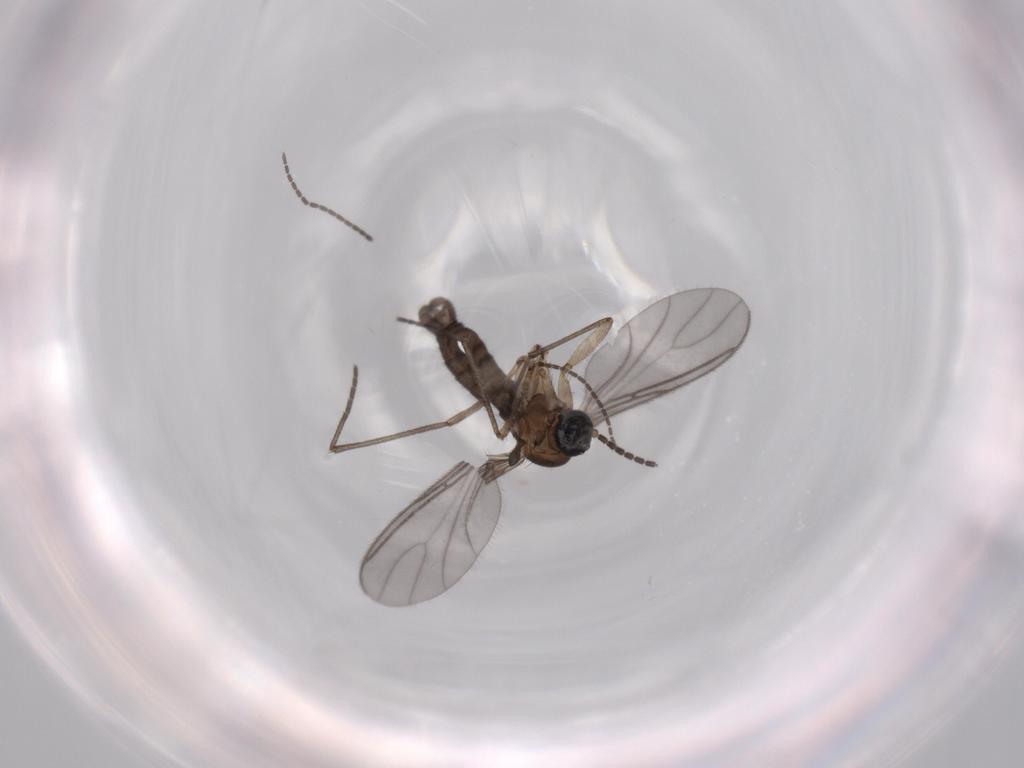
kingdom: Animalia
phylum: Arthropoda
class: Insecta
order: Diptera
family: Sciaridae
